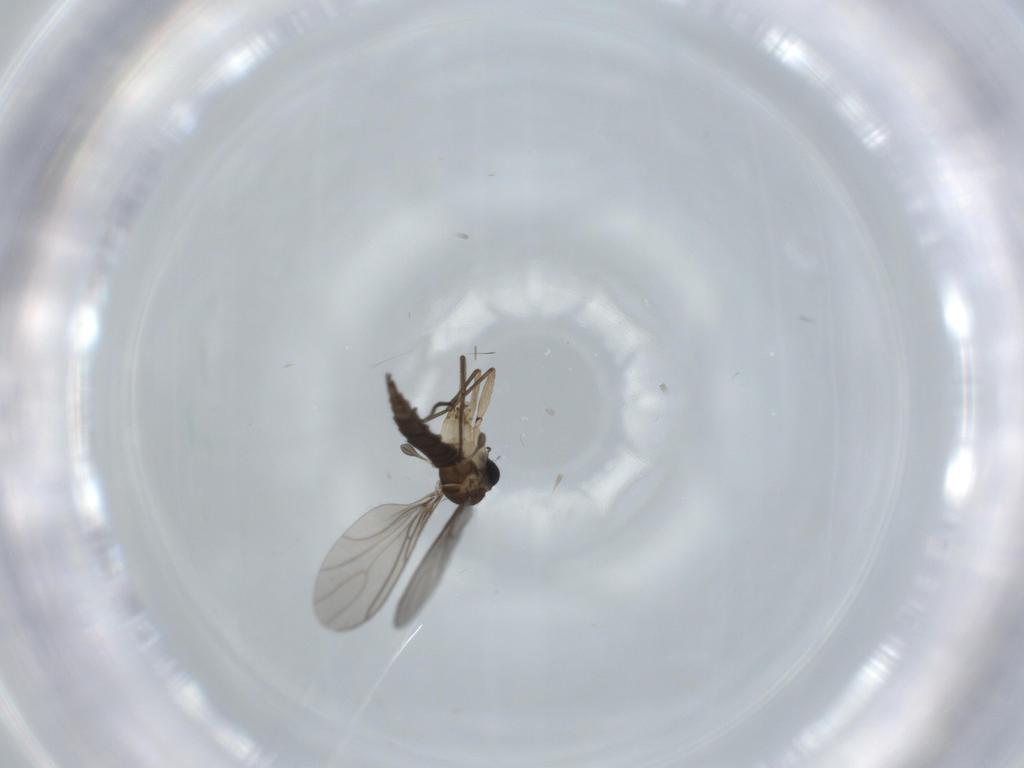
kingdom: Animalia
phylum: Arthropoda
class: Insecta
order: Diptera
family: Sciaridae
